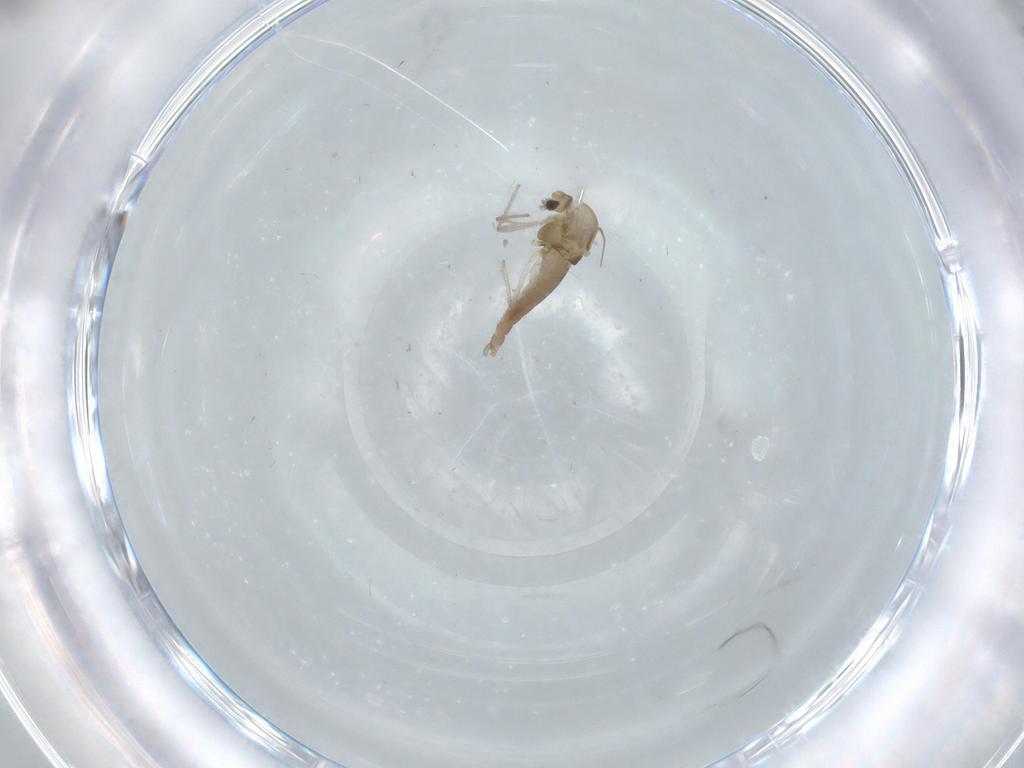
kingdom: Animalia
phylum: Arthropoda
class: Insecta
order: Diptera
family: Chironomidae
